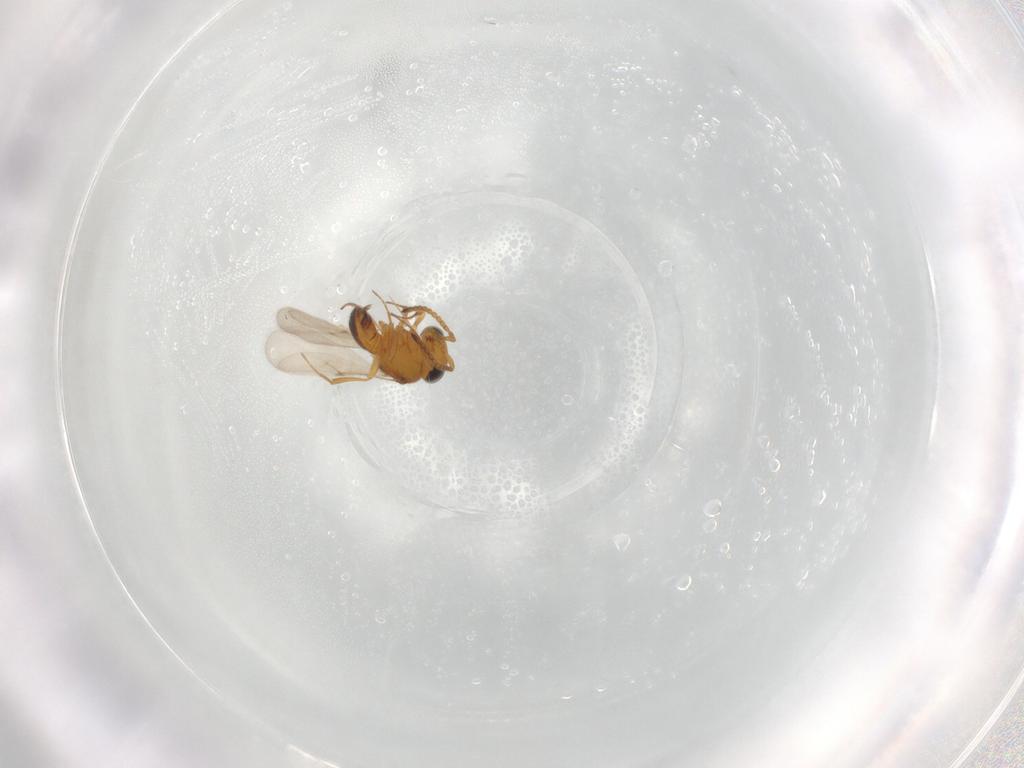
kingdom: Animalia
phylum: Arthropoda
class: Insecta
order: Hymenoptera
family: Scelionidae
